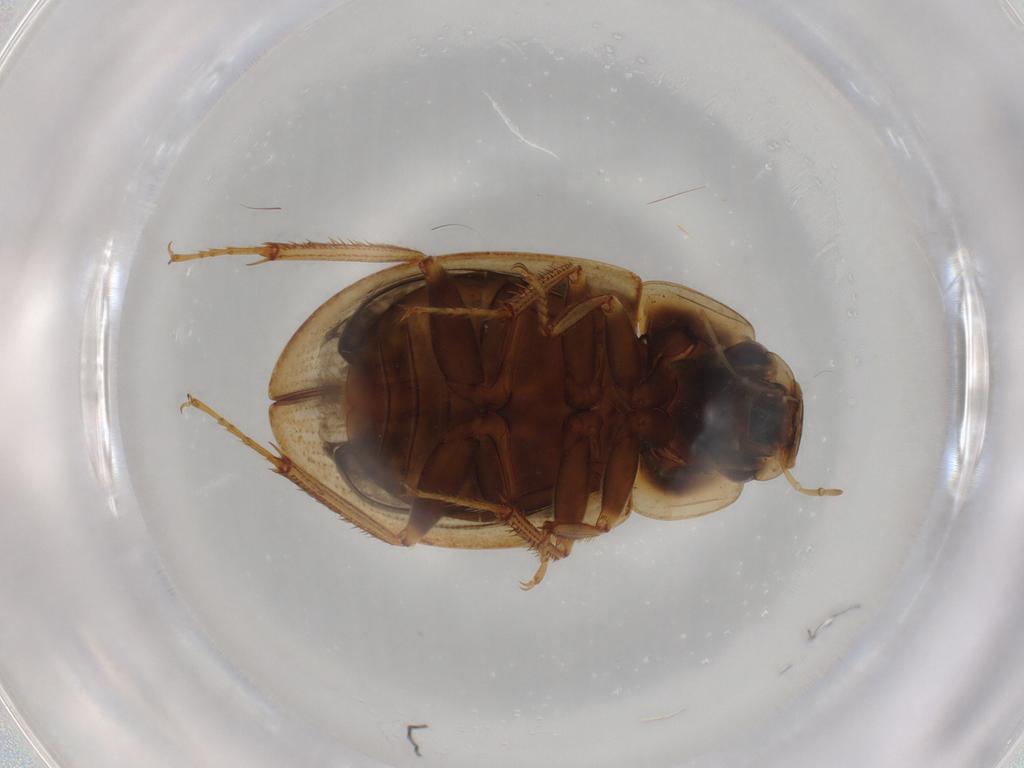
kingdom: Animalia
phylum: Arthropoda
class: Insecta
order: Coleoptera
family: Hydrophilidae
